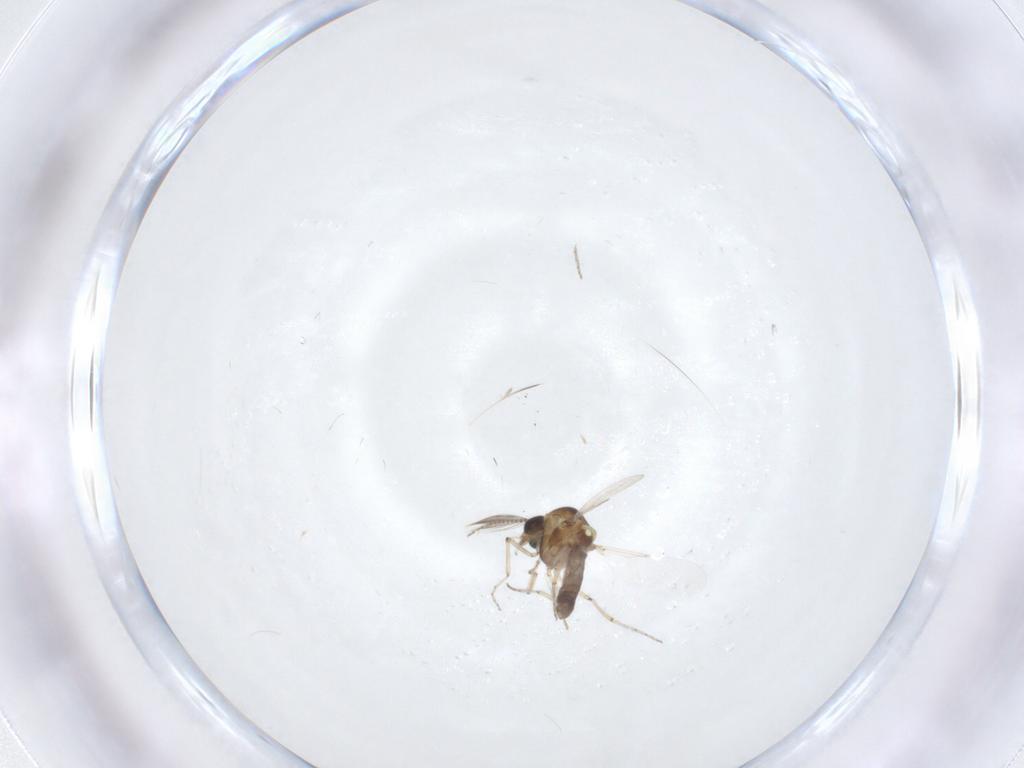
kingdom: Animalia
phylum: Arthropoda
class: Insecta
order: Diptera
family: Ceratopogonidae
